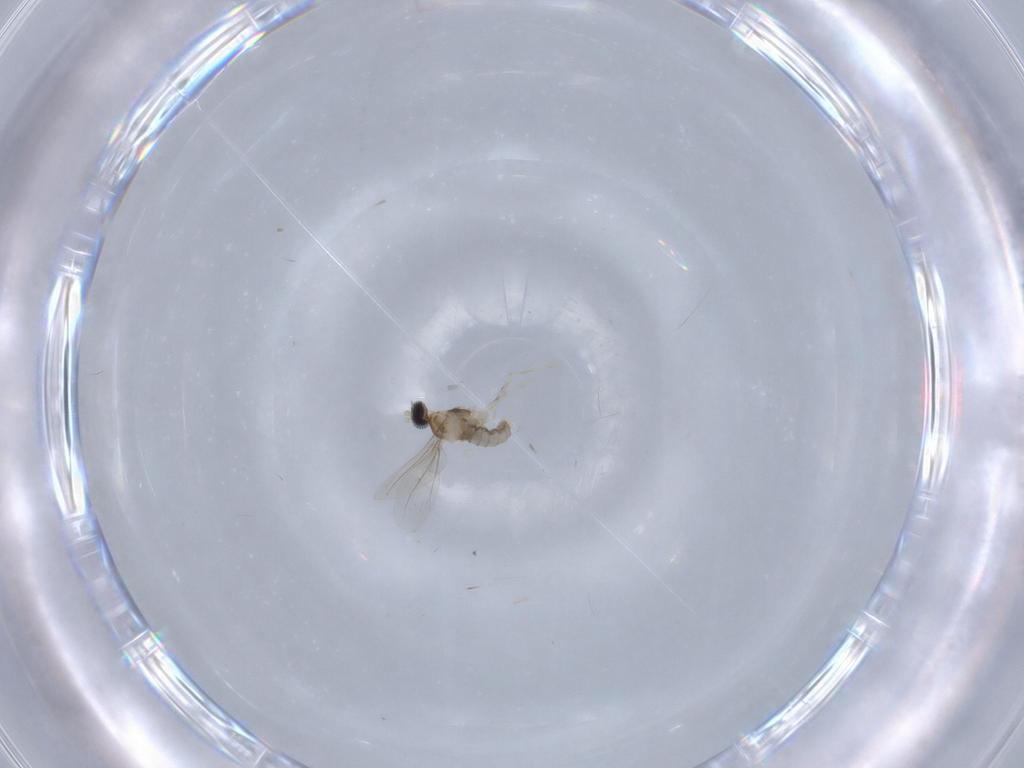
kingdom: Animalia
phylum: Arthropoda
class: Insecta
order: Diptera
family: Cecidomyiidae
